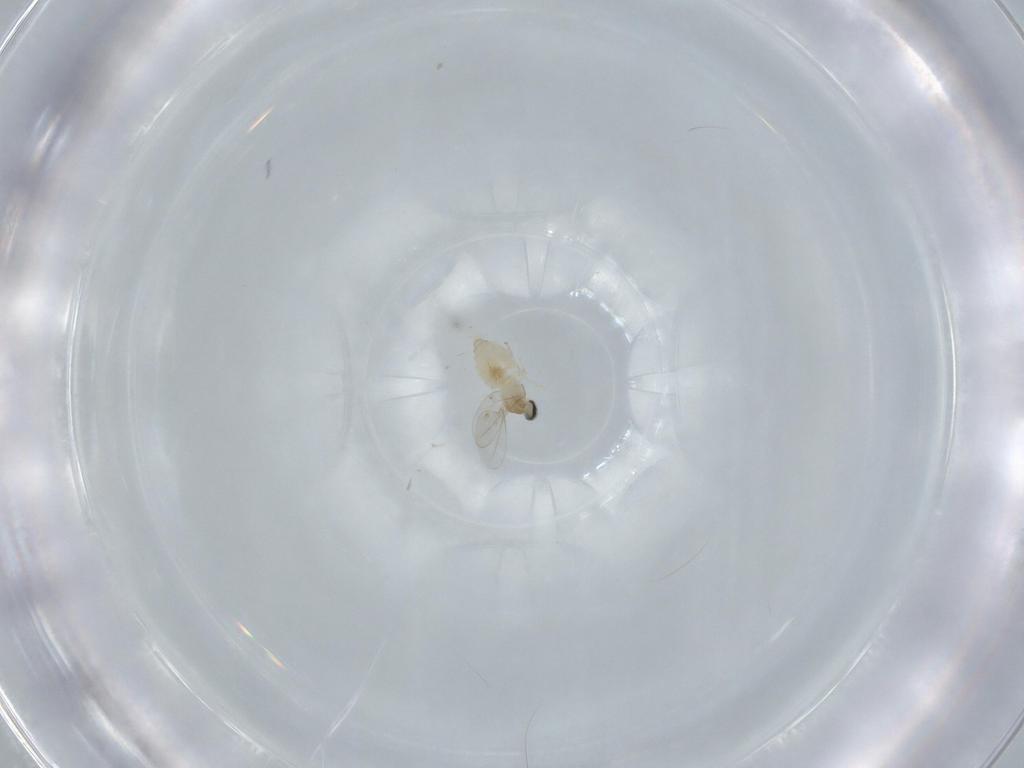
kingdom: Animalia
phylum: Arthropoda
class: Insecta
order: Diptera
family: Cecidomyiidae
